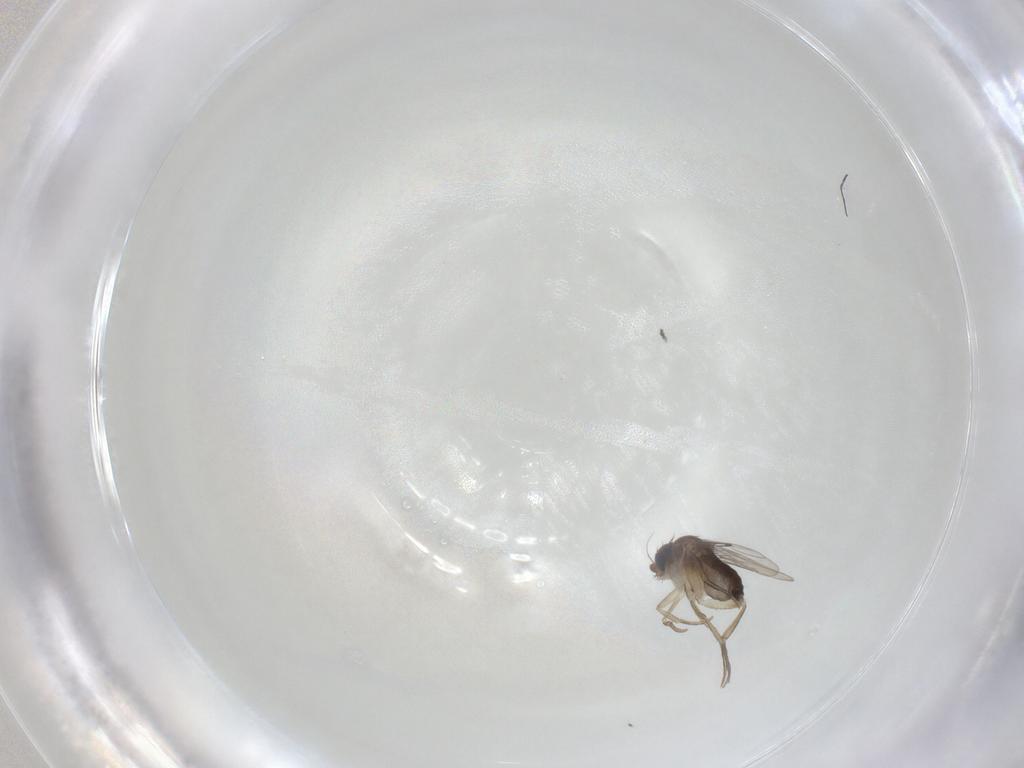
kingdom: Animalia
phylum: Arthropoda
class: Insecta
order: Diptera
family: Phoridae
